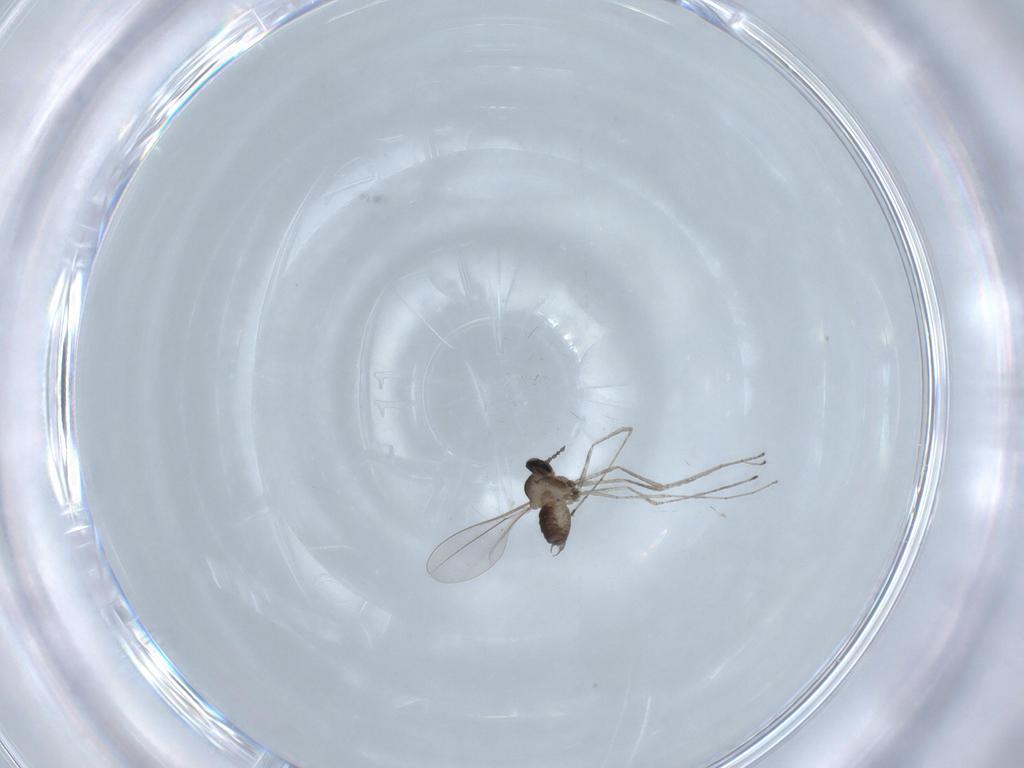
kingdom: Animalia
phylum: Arthropoda
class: Insecta
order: Diptera
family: Cecidomyiidae
